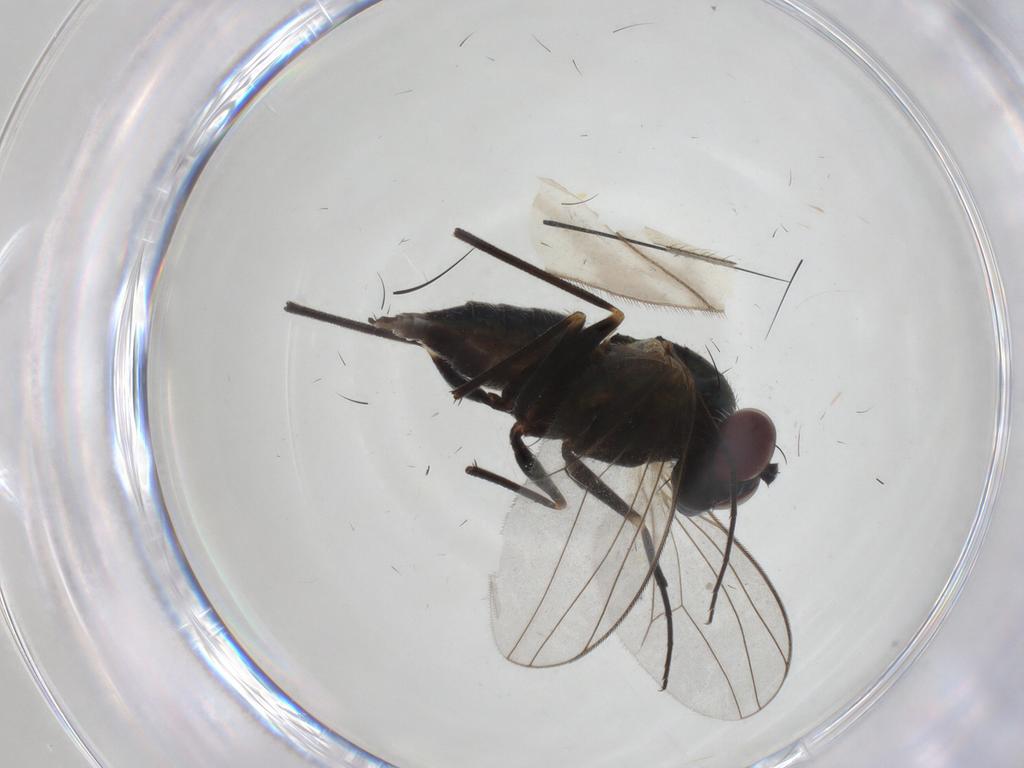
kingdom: Animalia
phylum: Arthropoda
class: Insecta
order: Diptera
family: Dolichopodidae
